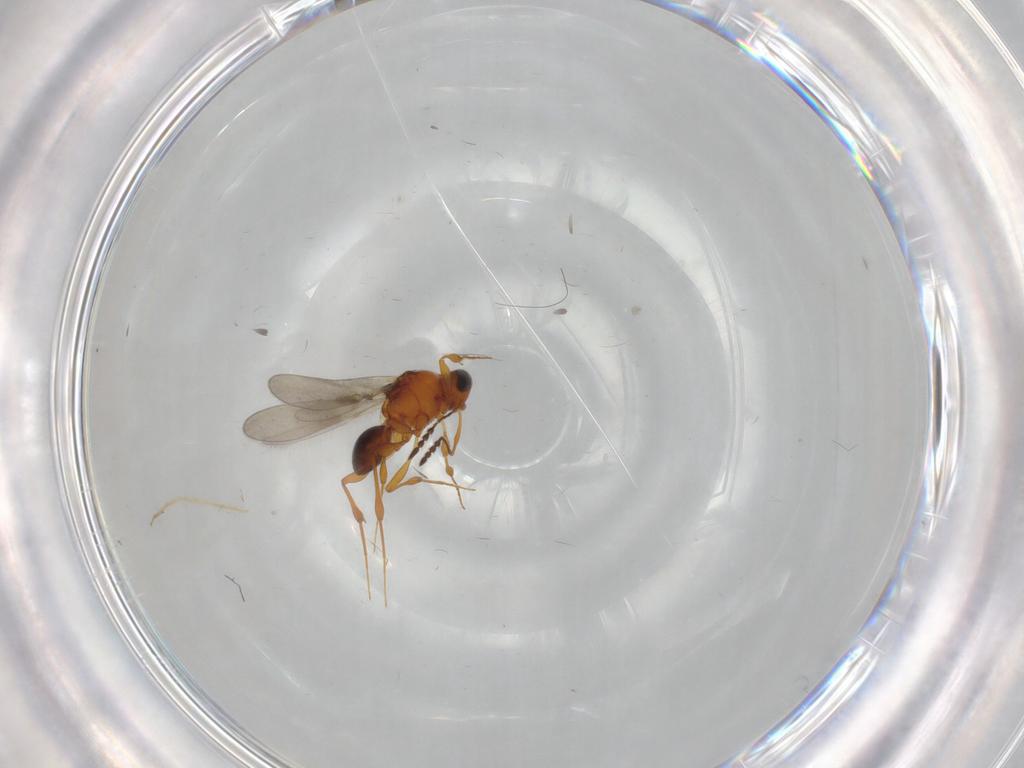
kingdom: Animalia
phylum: Arthropoda
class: Insecta
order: Hymenoptera
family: Platygastridae
